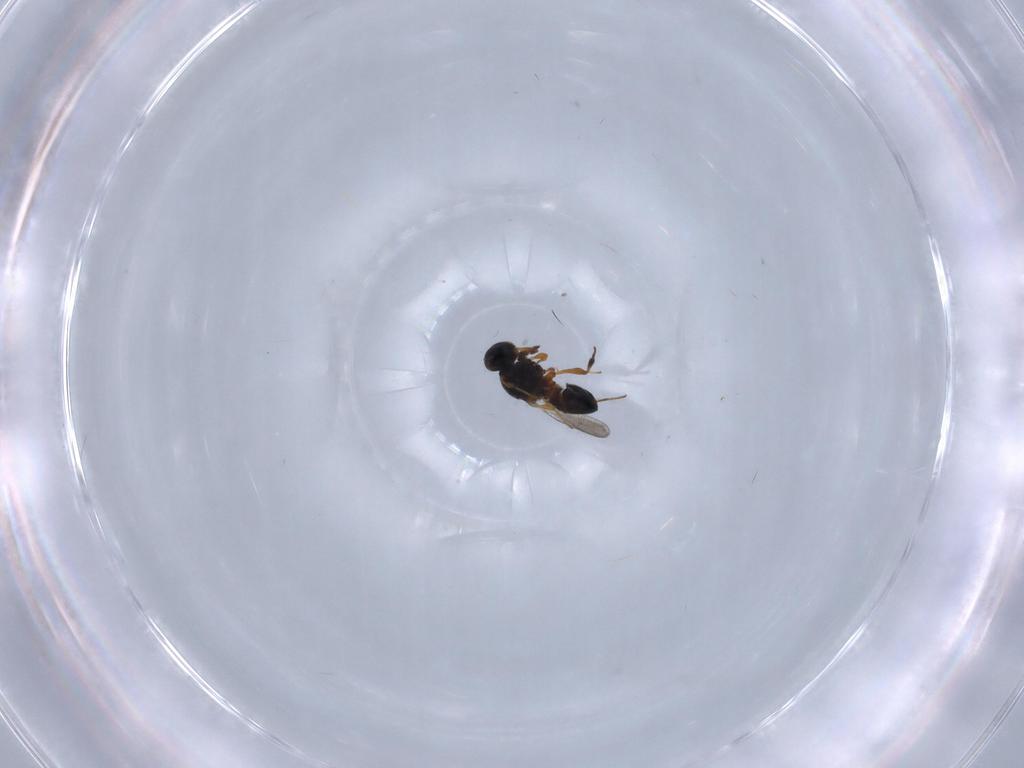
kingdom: Animalia
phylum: Arthropoda
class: Insecta
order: Hymenoptera
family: Platygastridae
